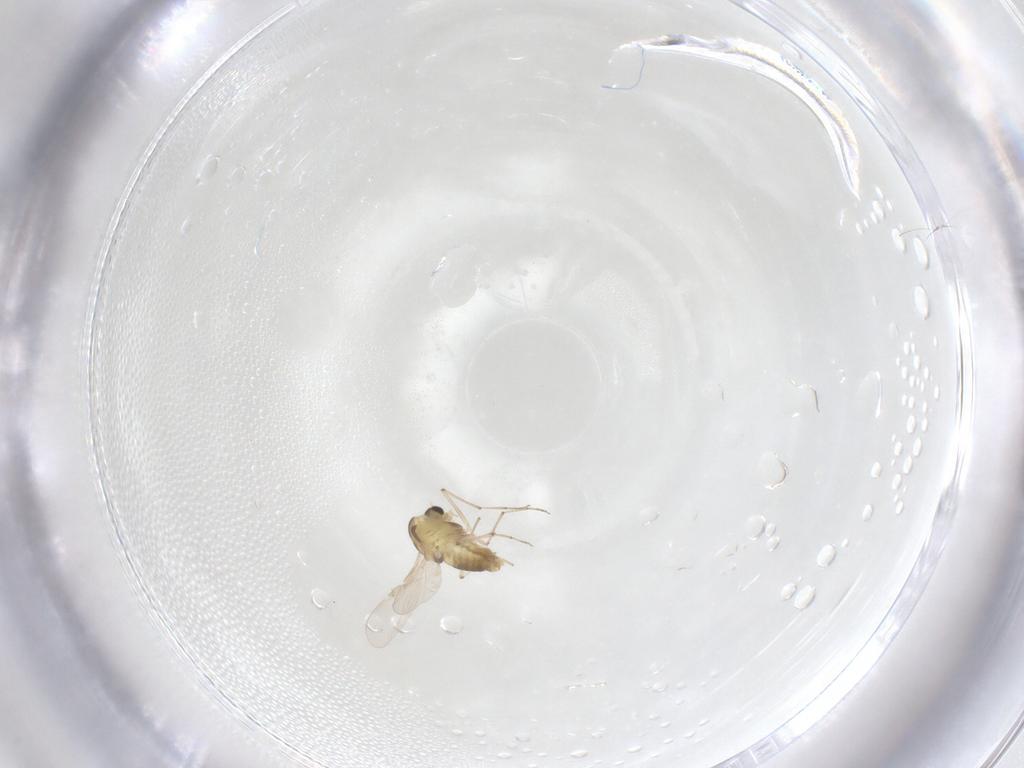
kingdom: Animalia
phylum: Arthropoda
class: Insecta
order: Diptera
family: Chironomidae
